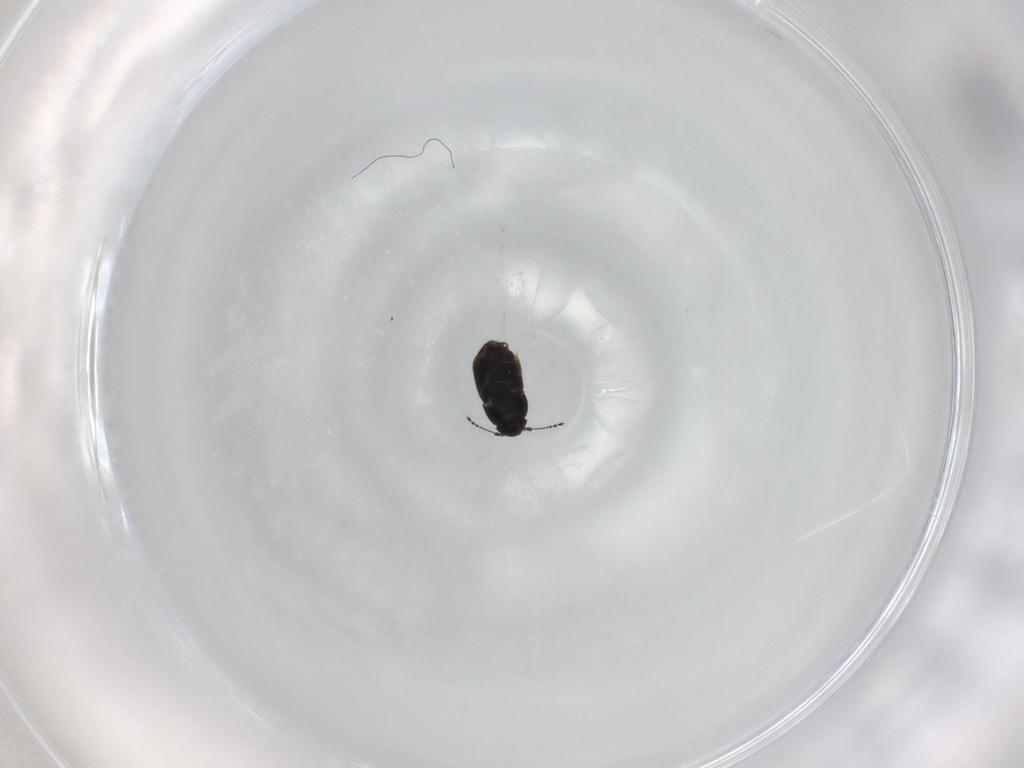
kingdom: Animalia
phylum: Arthropoda
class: Insecta
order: Coleoptera
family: Ptiliidae
